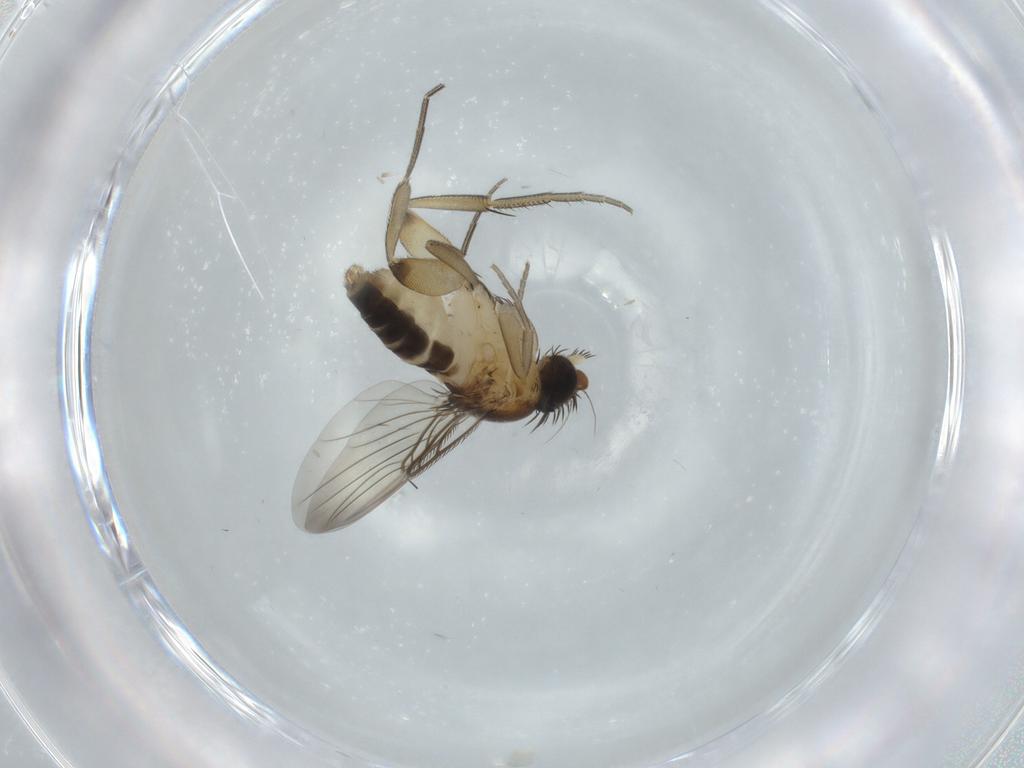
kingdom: Animalia
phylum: Arthropoda
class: Insecta
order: Diptera
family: Phoridae
